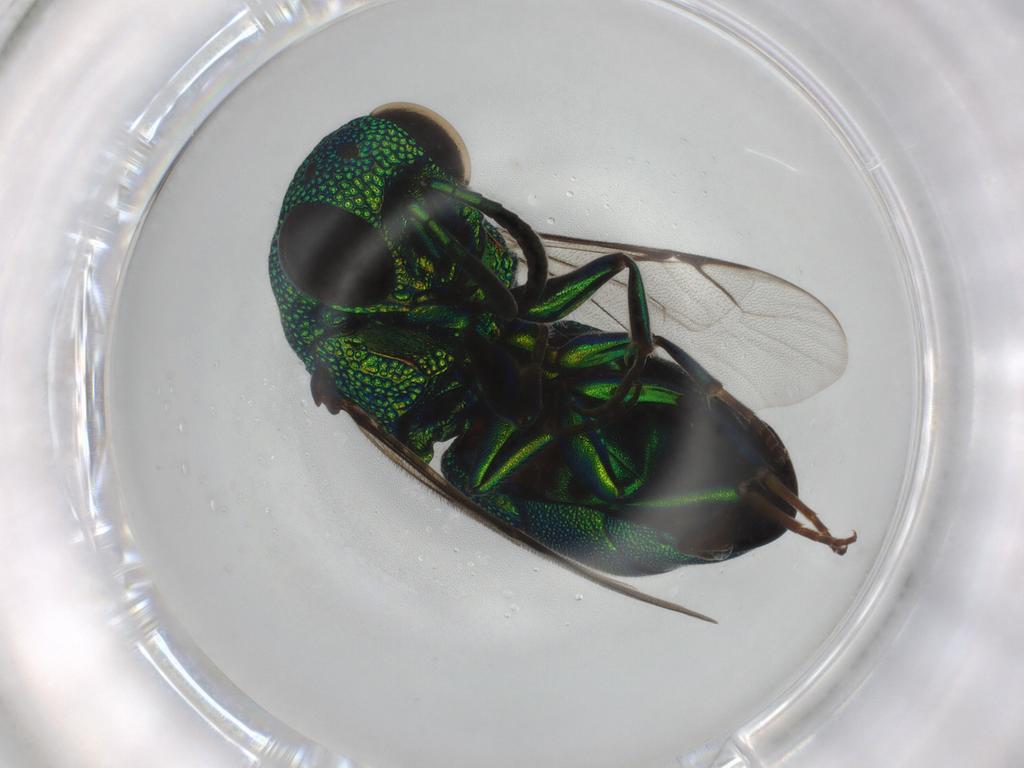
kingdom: Animalia
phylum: Arthropoda
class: Insecta
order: Hymenoptera
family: Chrysididae
